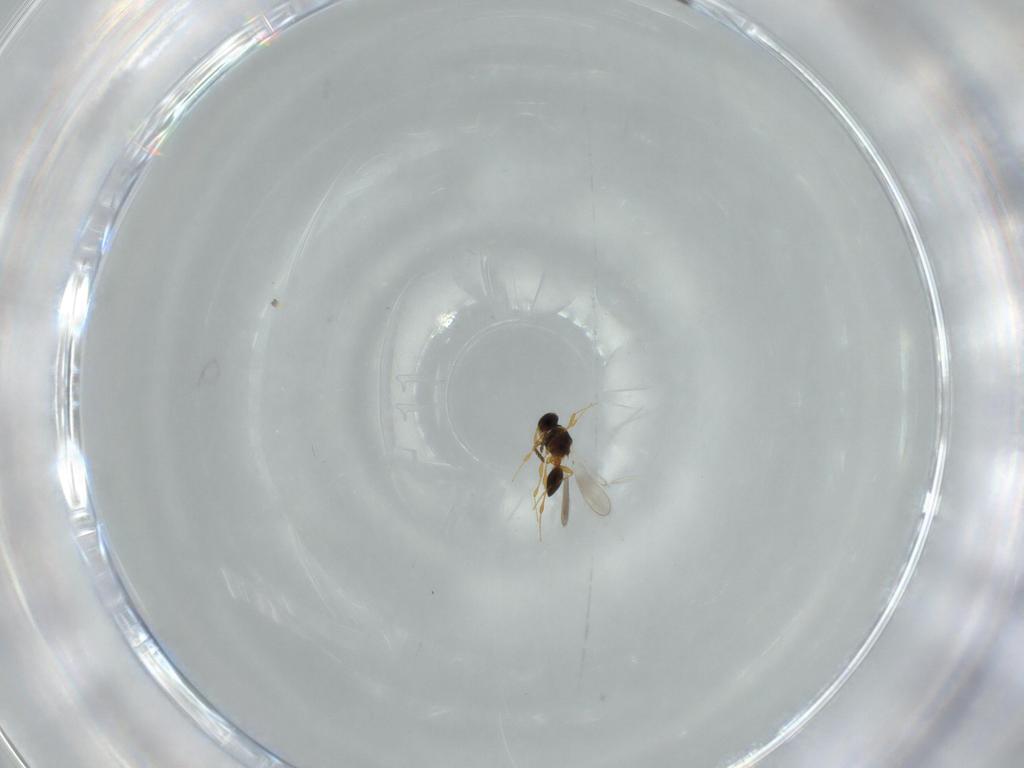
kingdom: Animalia
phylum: Arthropoda
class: Insecta
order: Hymenoptera
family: Platygastridae
